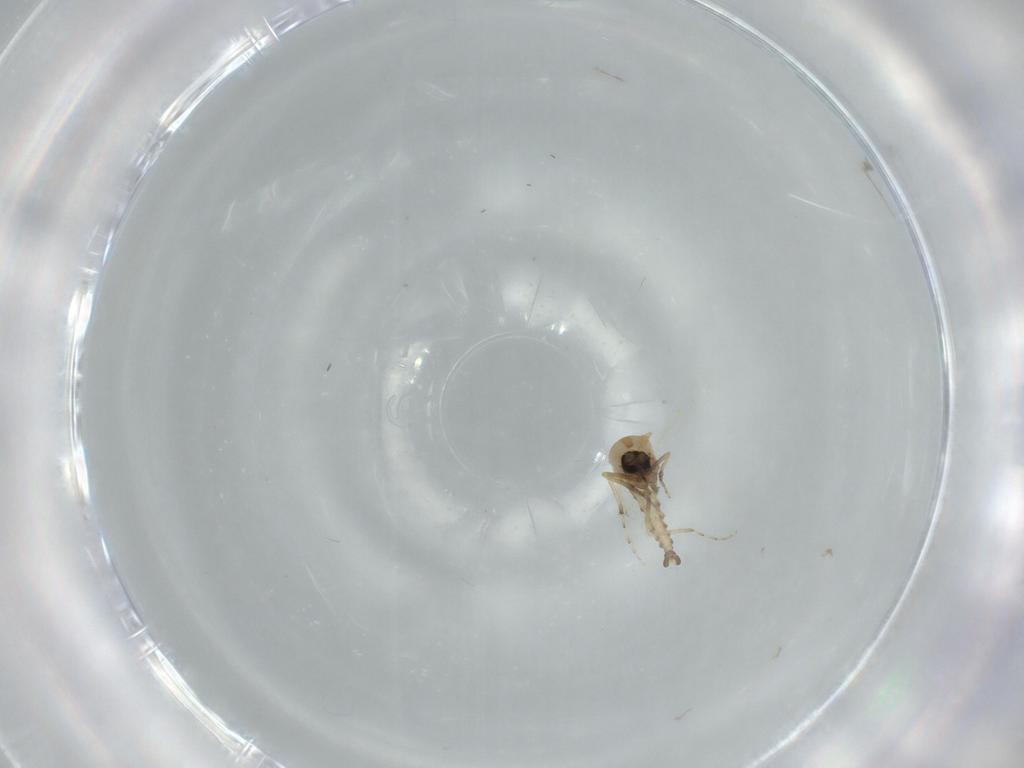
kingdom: Animalia
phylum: Arthropoda
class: Insecta
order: Diptera
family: Ceratopogonidae
